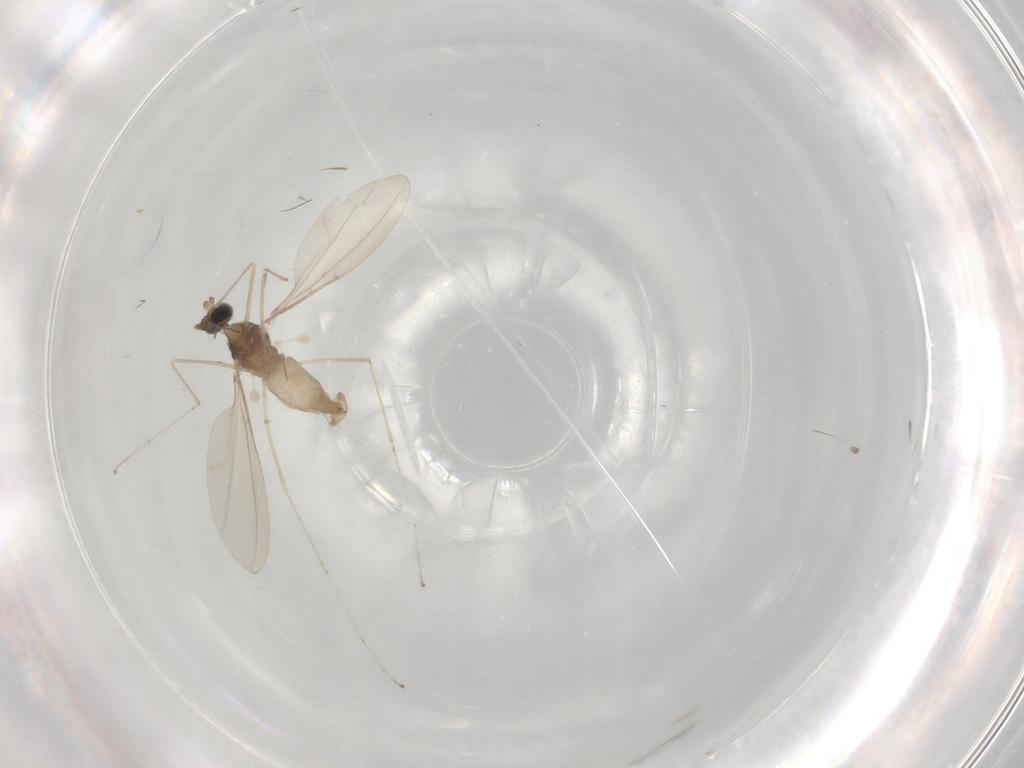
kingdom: Animalia
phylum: Arthropoda
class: Insecta
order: Diptera
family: Cecidomyiidae
